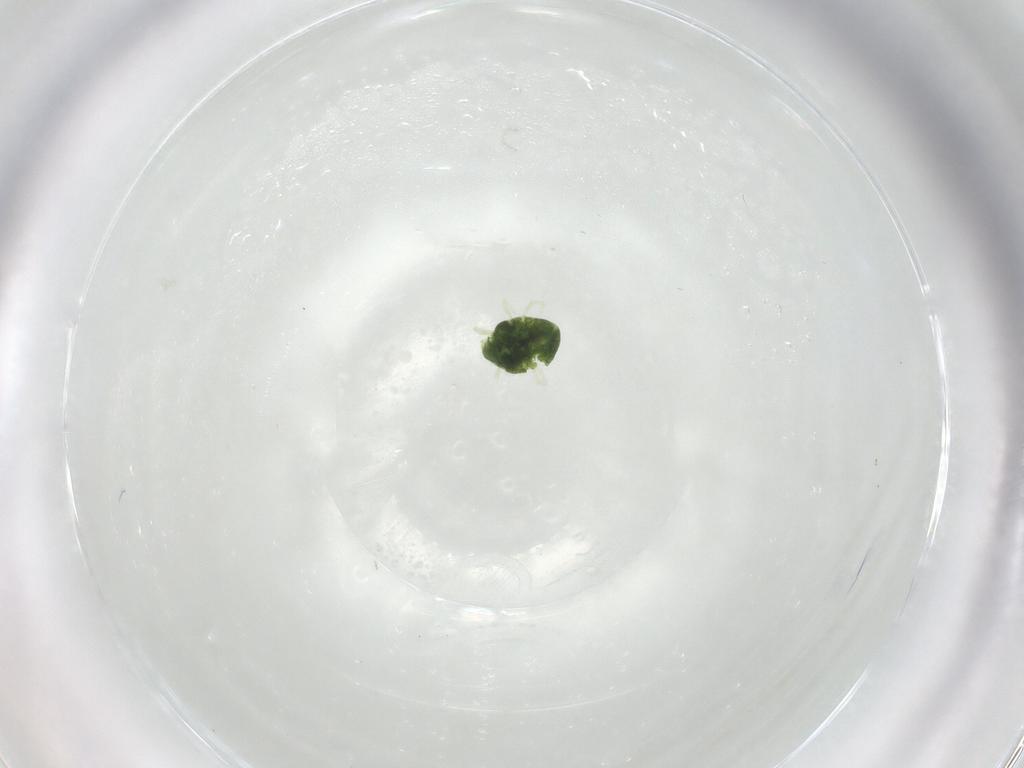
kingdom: Animalia
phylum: Arthropoda
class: Arachnida
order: Trombidiformes
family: Penthaleidae
